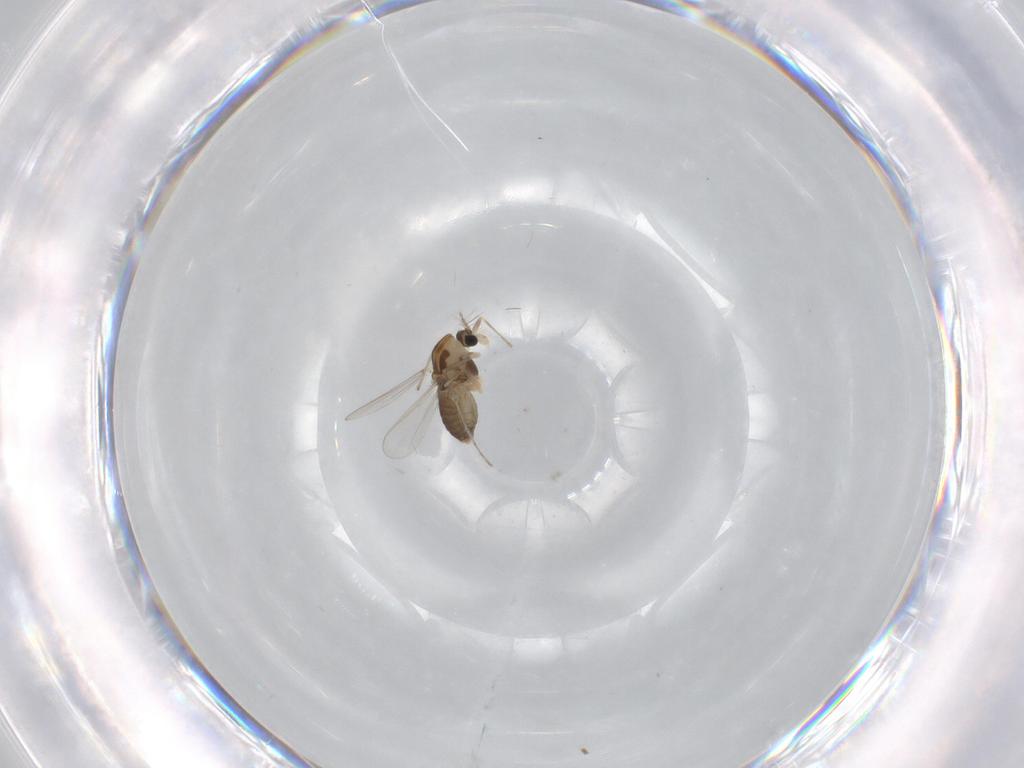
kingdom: Animalia
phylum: Arthropoda
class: Insecta
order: Diptera
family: Chironomidae
